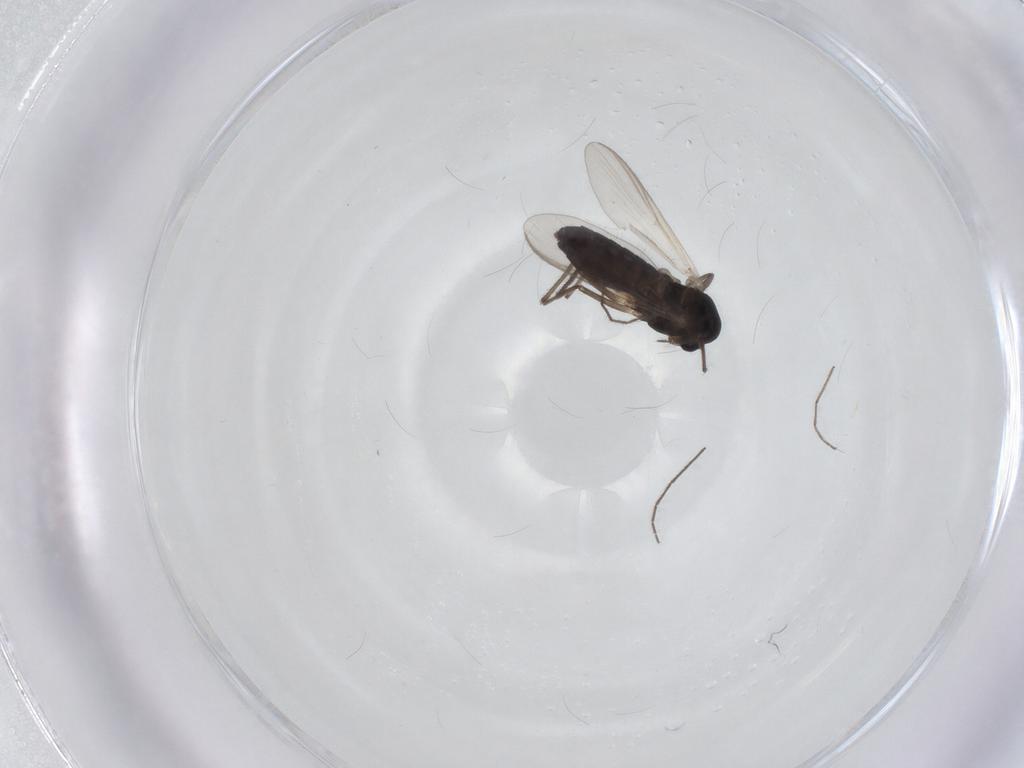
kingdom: Animalia
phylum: Arthropoda
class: Insecta
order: Diptera
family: Chironomidae
